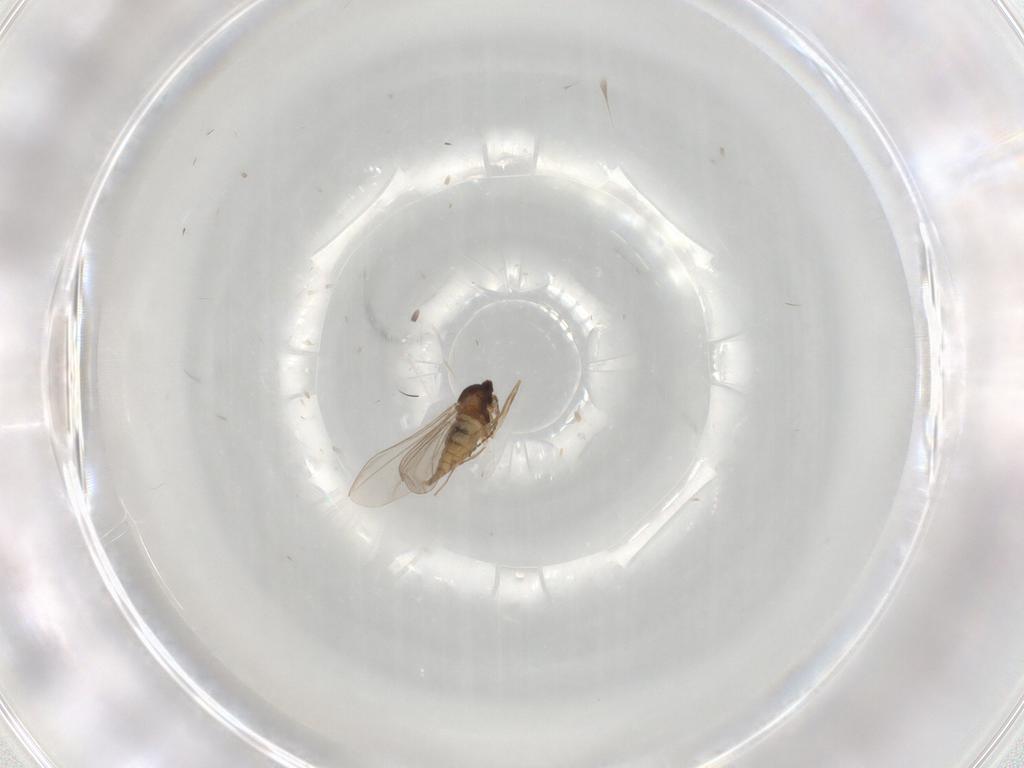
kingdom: Animalia
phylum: Arthropoda
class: Insecta
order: Diptera
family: Cecidomyiidae
